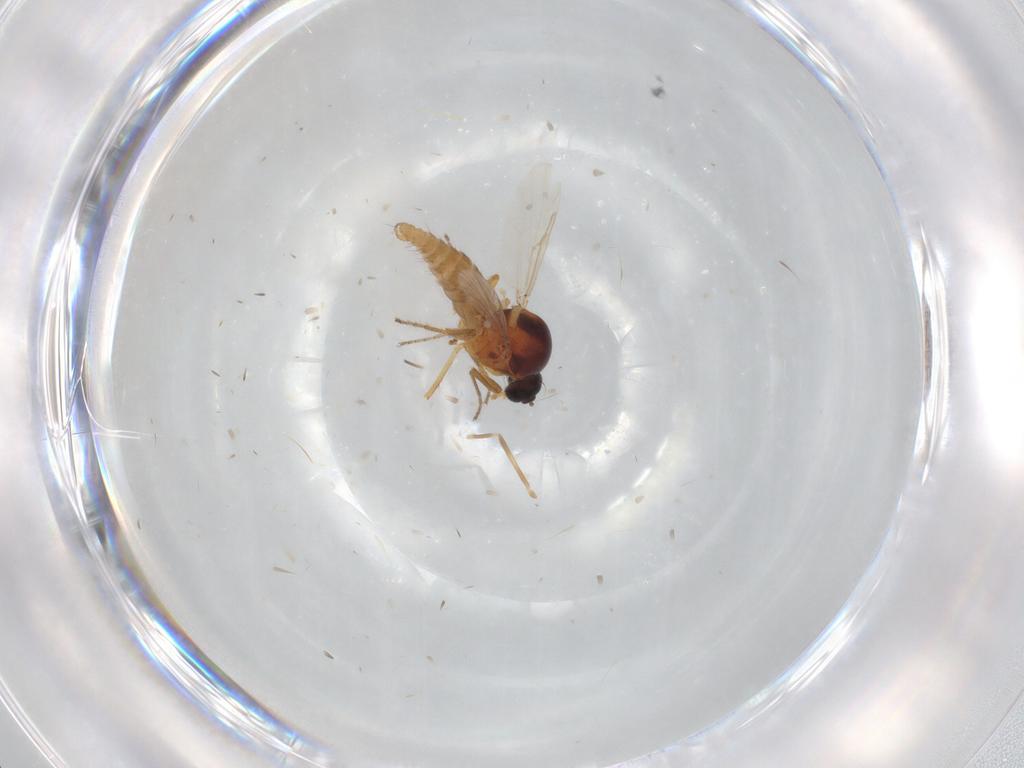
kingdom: Animalia
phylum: Arthropoda
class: Insecta
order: Diptera
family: Ceratopogonidae
